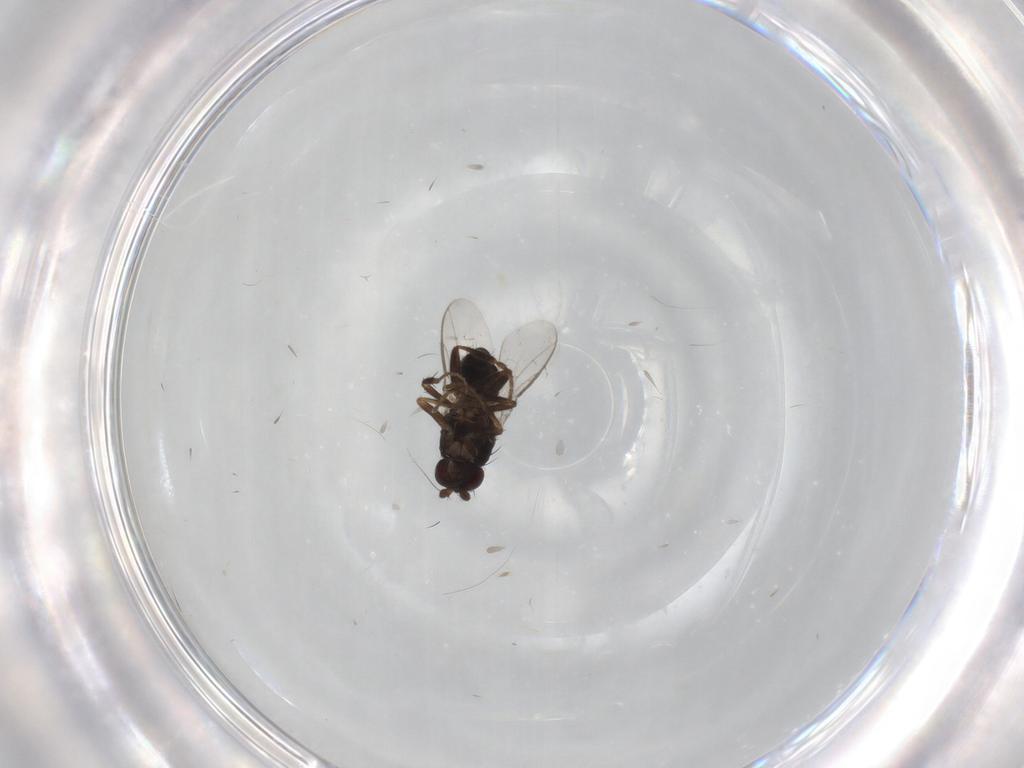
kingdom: Animalia
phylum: Arthropoda
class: Insecta
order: Diptera
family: Sphaeroceridae
